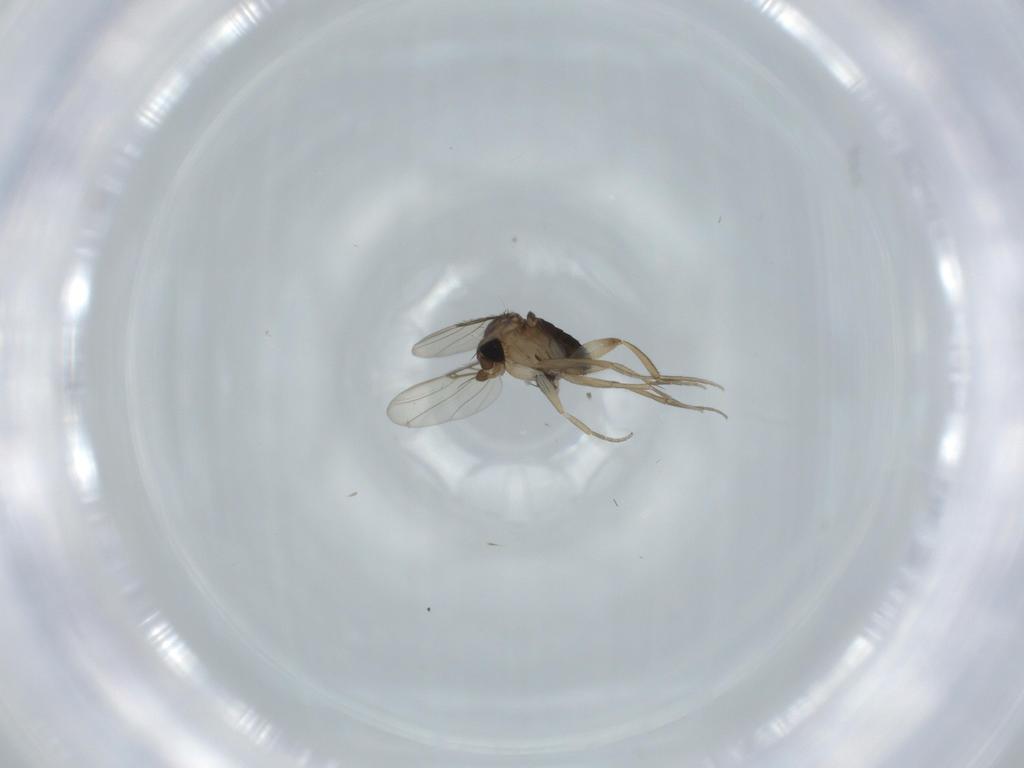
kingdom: Animalia
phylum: Arthropoda
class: Insecta
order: Diptera
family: Phoridae
